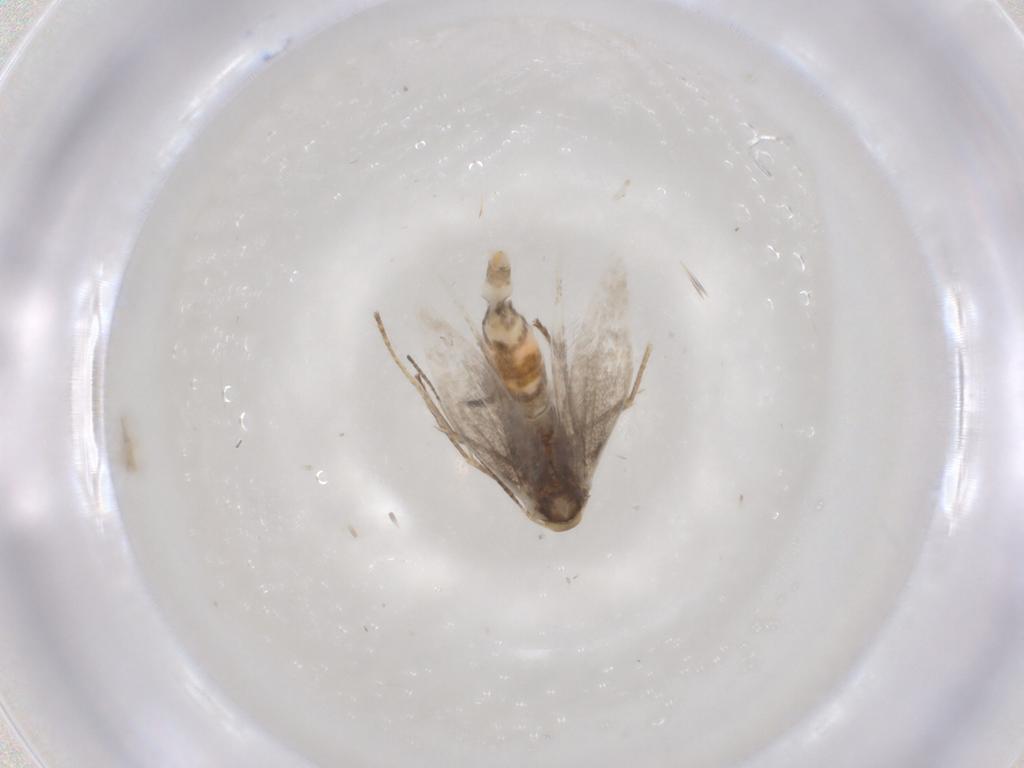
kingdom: Animalia
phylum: Arthropoda
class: Insecta
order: Lepidoptera
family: Gracillariidae
